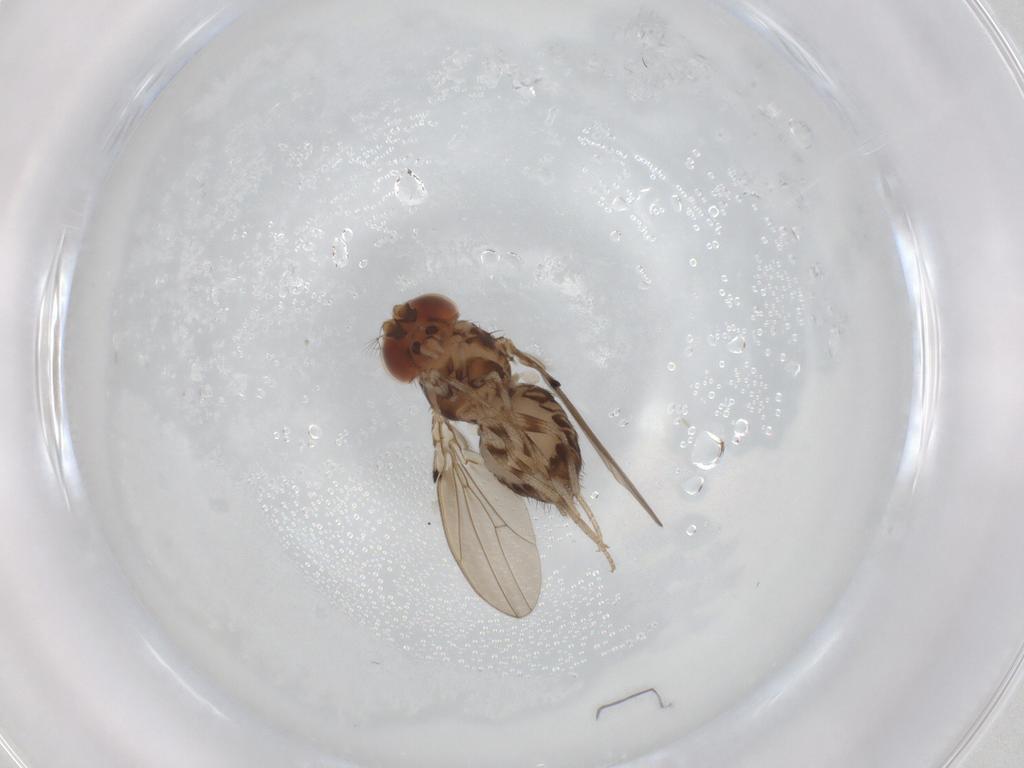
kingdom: Animalia
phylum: Arthropoda
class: Insecta
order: Diptera
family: Drosophilidae
